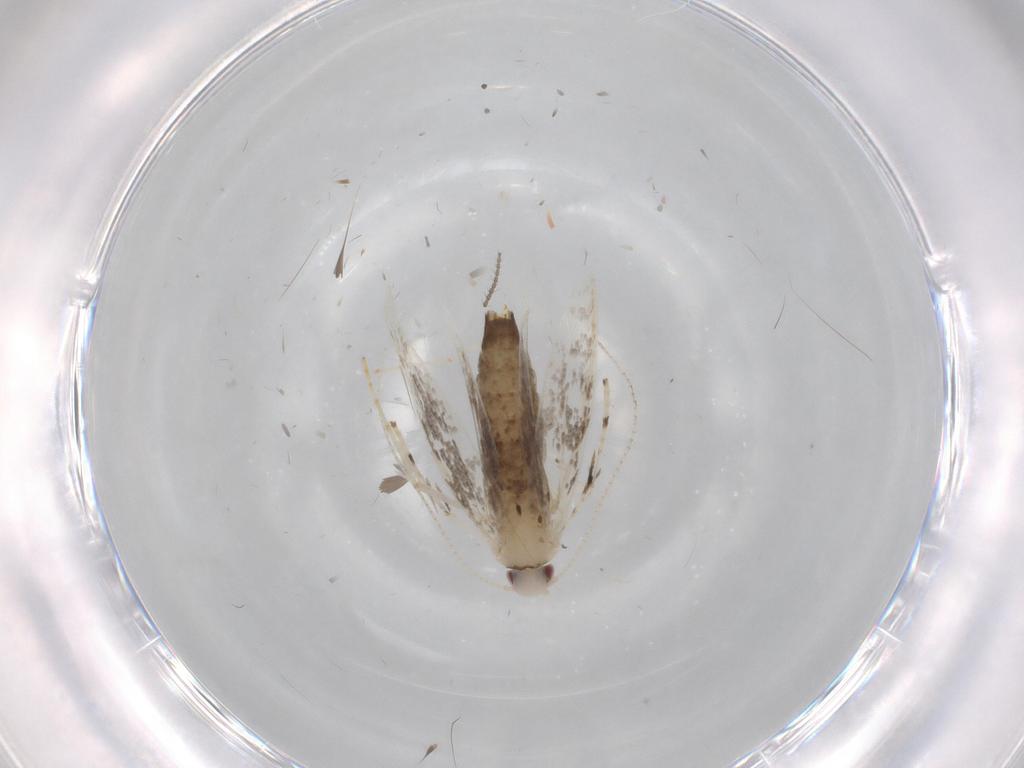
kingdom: Animalia
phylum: Arthropoda
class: Insecta
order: Lepidoptera
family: Gracillariidae
